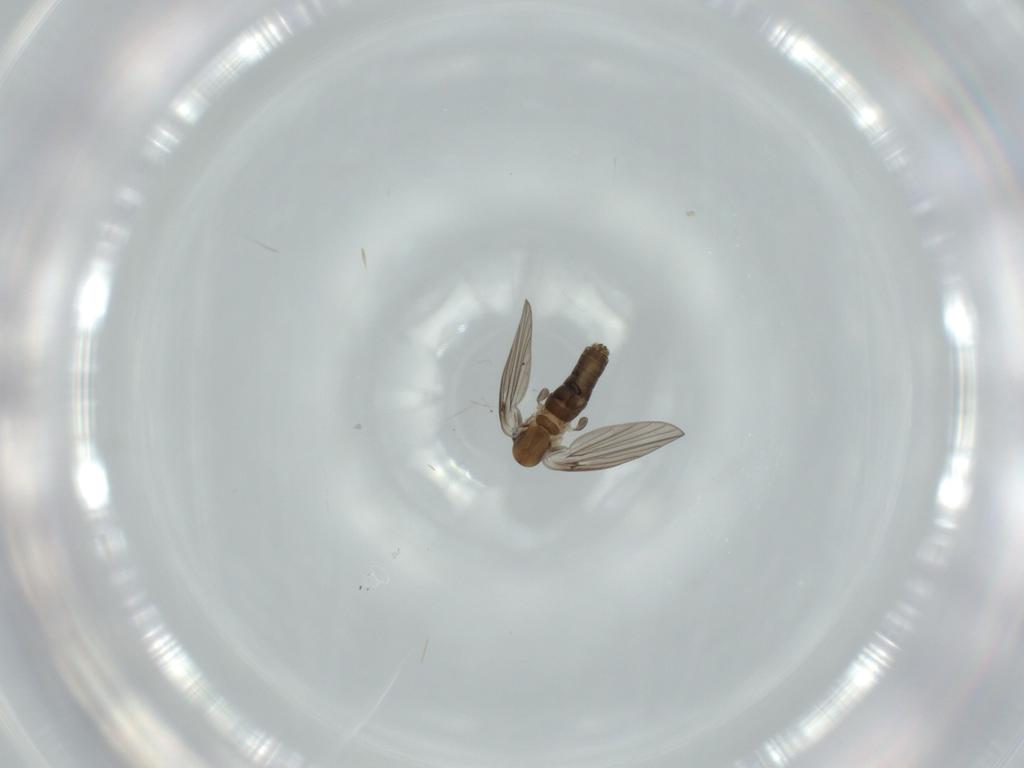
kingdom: Animalia
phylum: Arthropoda
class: Insecta
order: Diptera
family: Psychodidae
